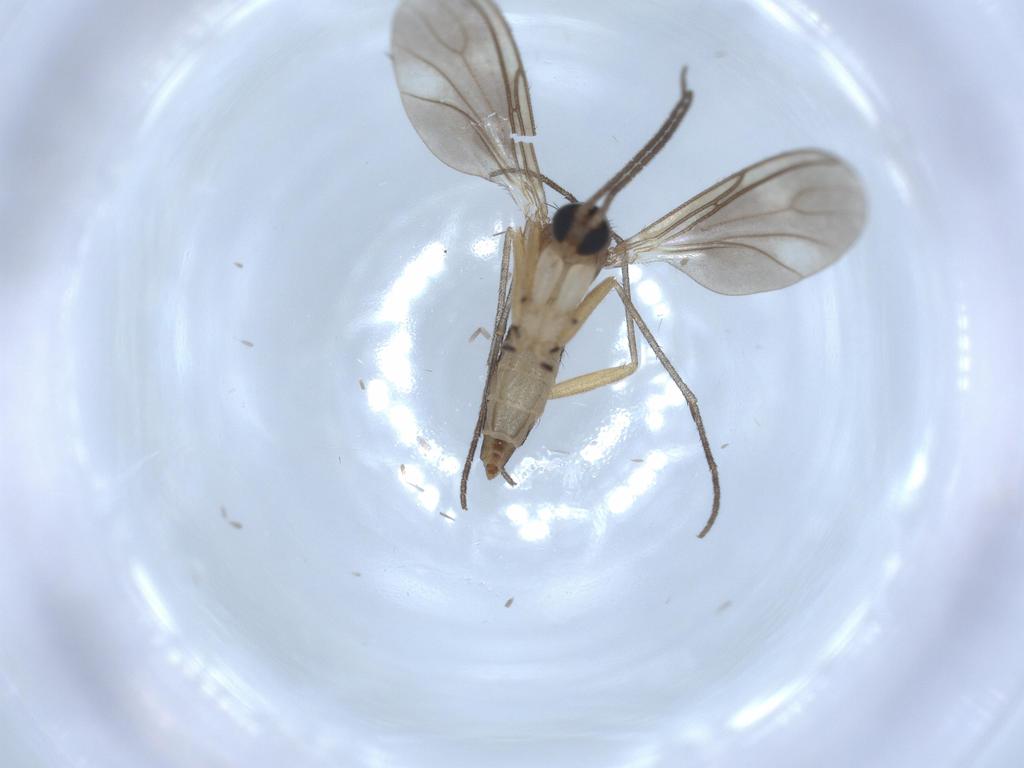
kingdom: Animalia
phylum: Arthropoda
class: Insecta
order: Diptera
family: Sciaridae
